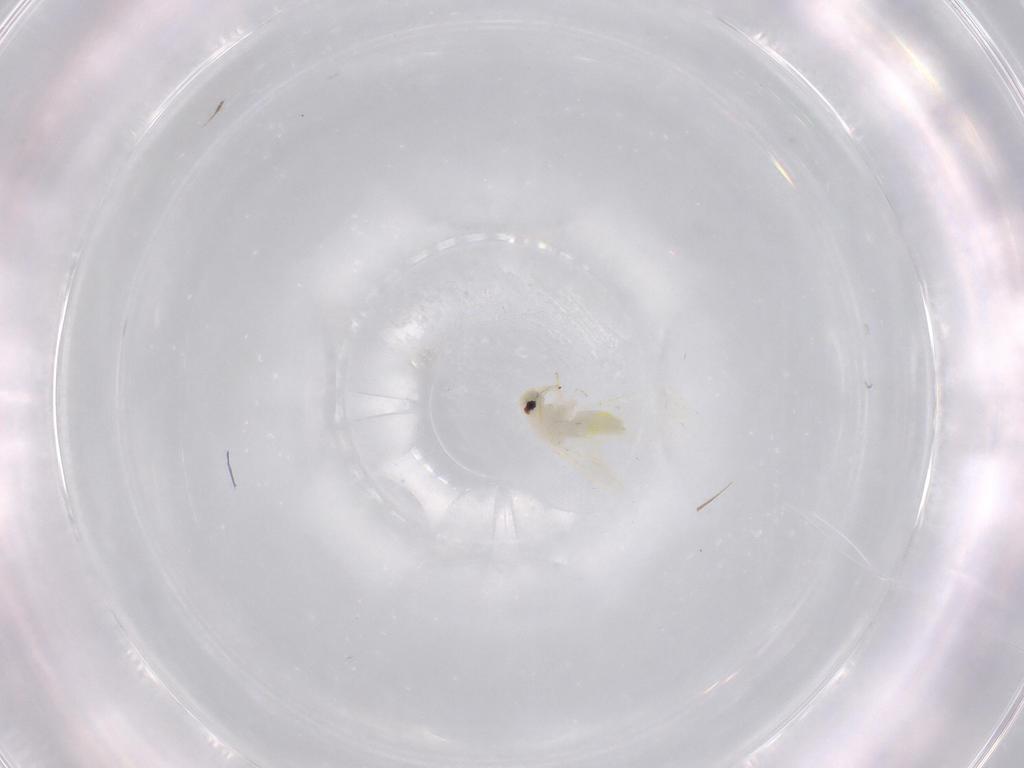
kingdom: Animalia
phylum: Arthropoda
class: Insecta
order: Hemiptera
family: Aleyrodidae
